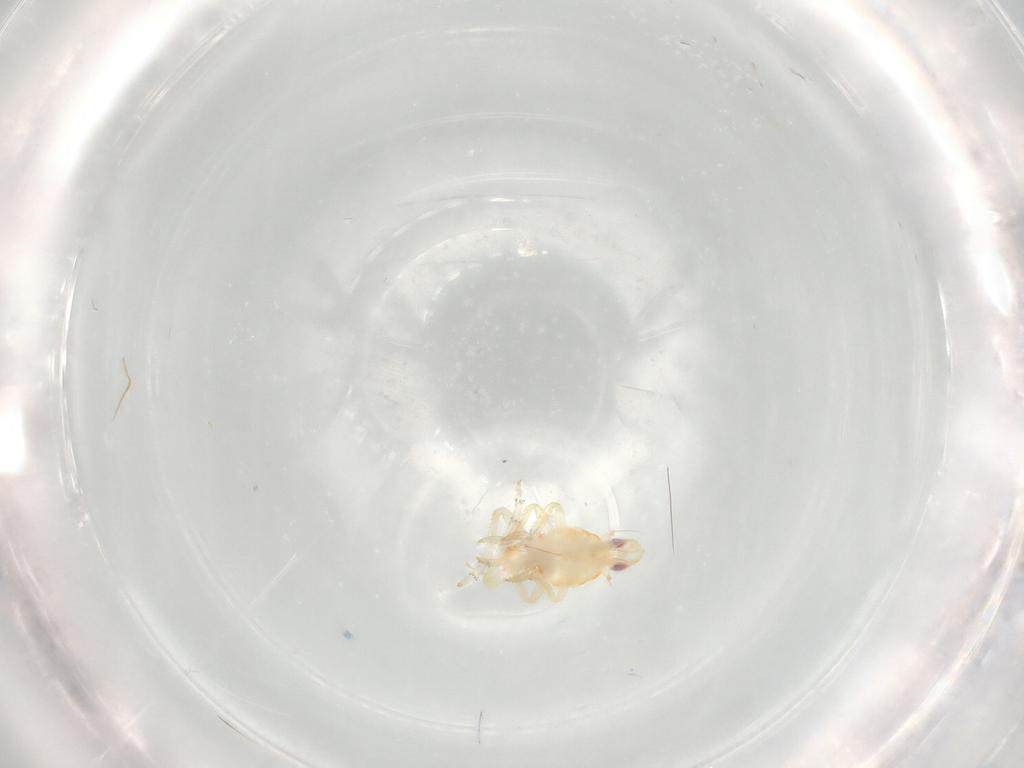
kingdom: Animalia
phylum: Arthropoda
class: Insecta
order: Hemiptera
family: Tropiduchidae
